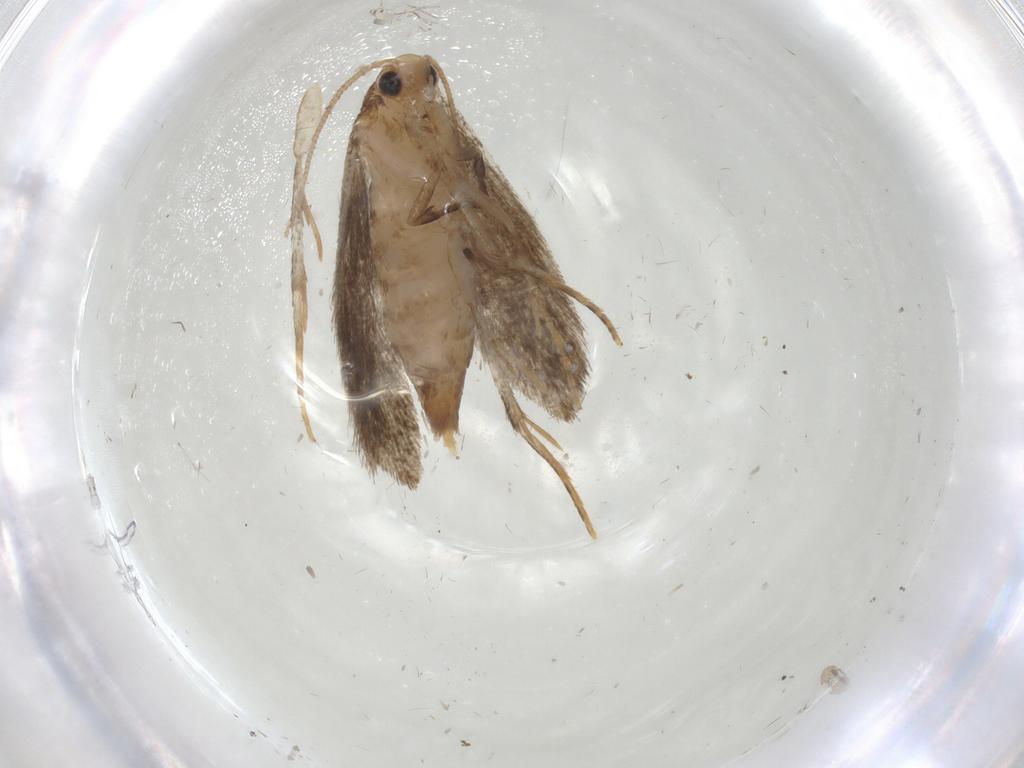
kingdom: Animalia
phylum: Arthropoda
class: Insecta
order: Lepidoptera
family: Tineidae
